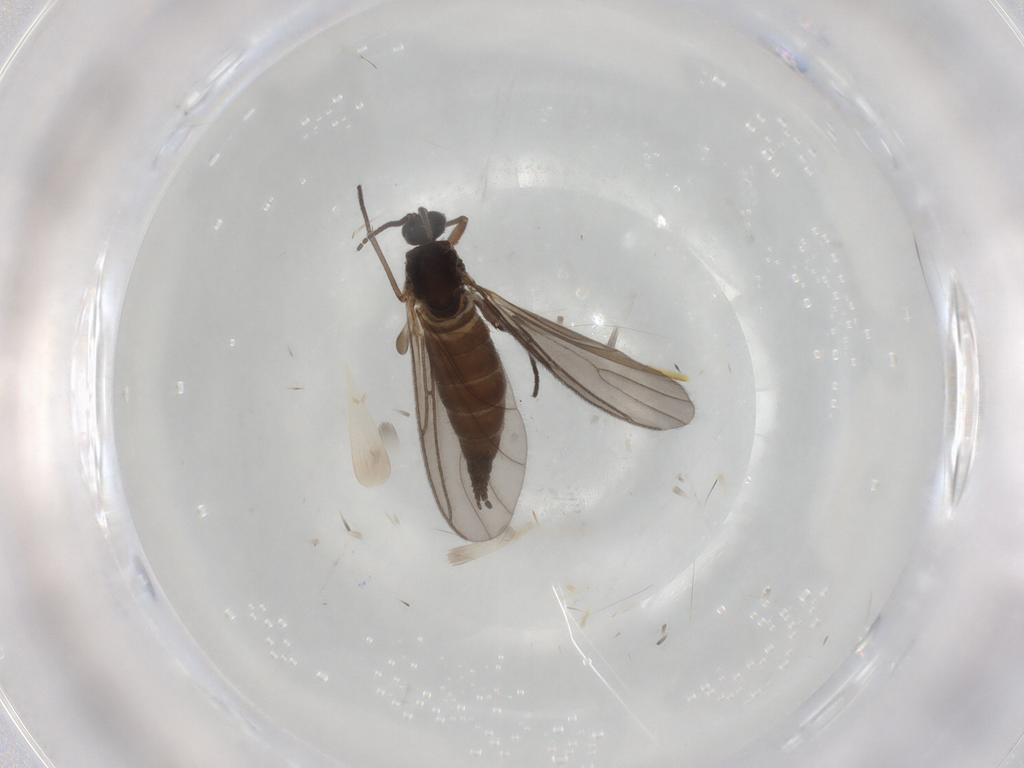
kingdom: Animalia
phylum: Arthropoda
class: Insecta
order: Diptera
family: Sciaridae
